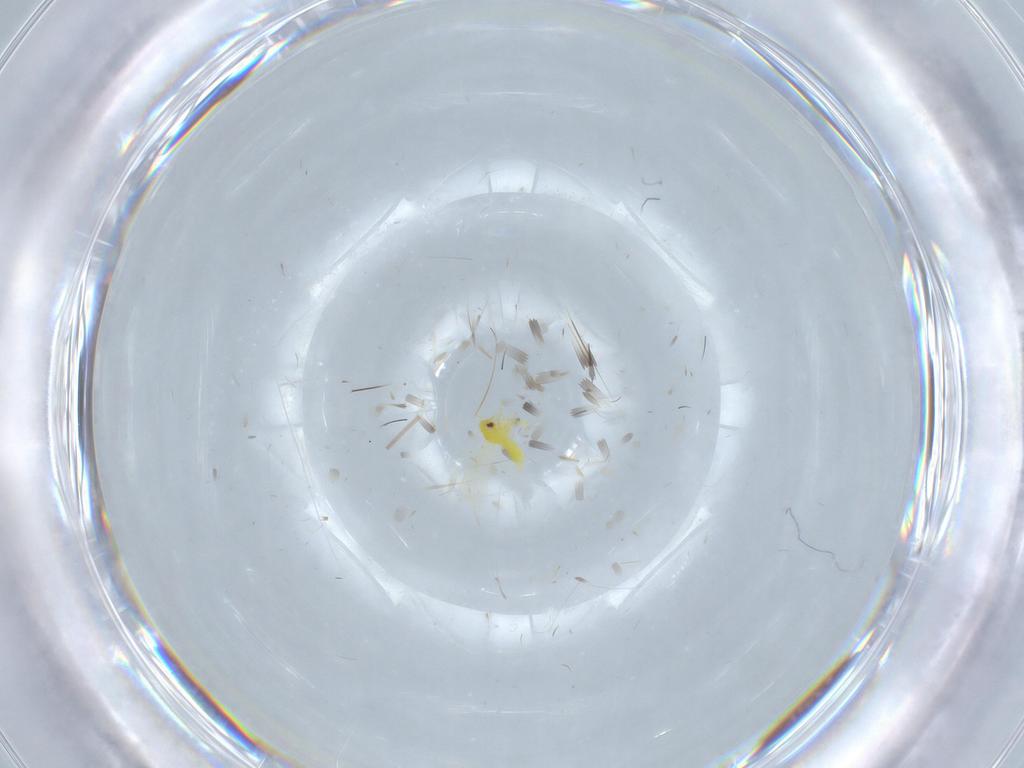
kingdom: Animalia
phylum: Arthropoda
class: Insecta
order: Hemiptera
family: Aleyrodidae
